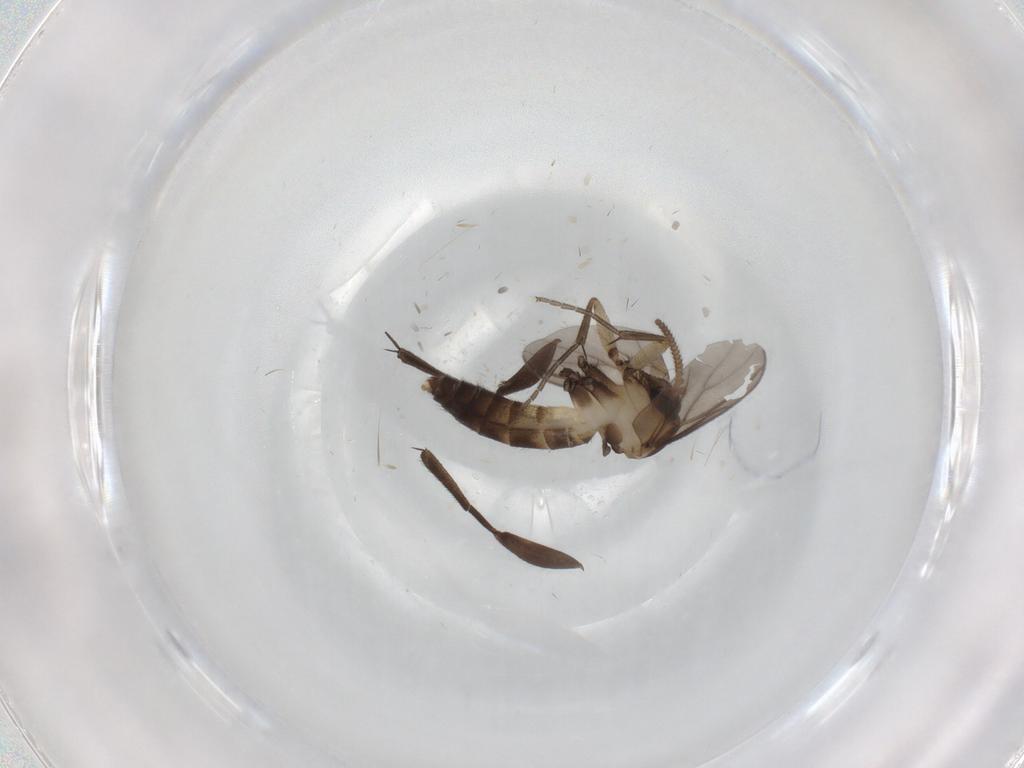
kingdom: Animalia
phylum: Arthropoda
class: Insecta
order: Diptera
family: Mycetophilidae
